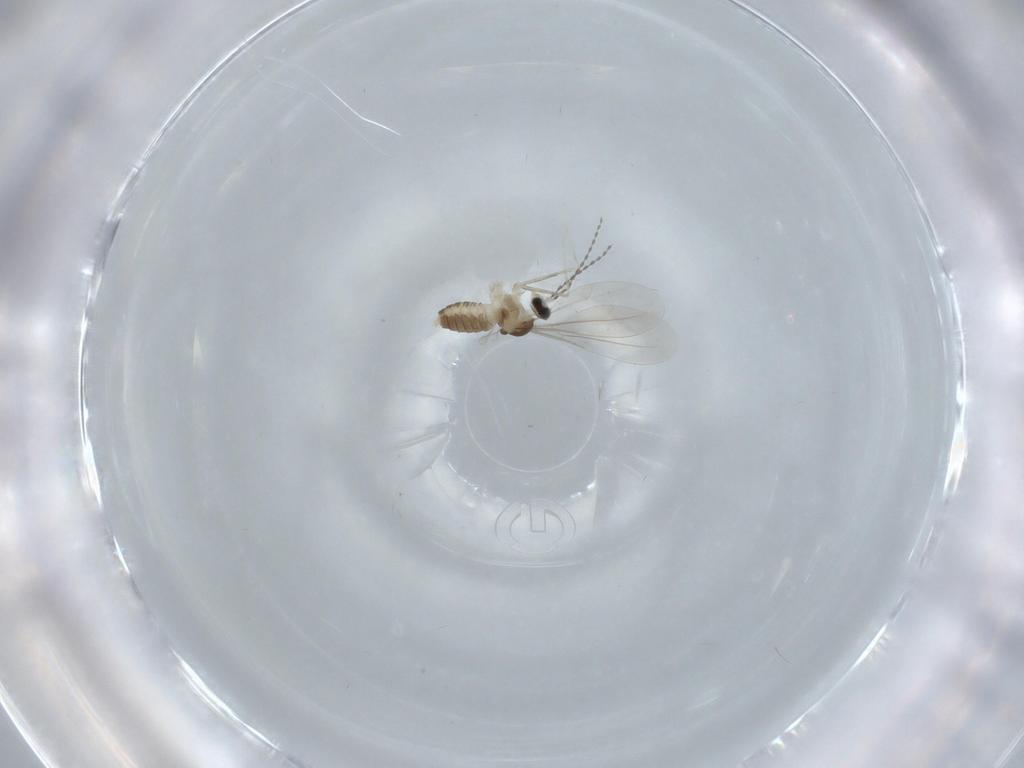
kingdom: Animalia
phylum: Arthropoda
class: Insecta
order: Diptera
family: Cecidomyiidae
